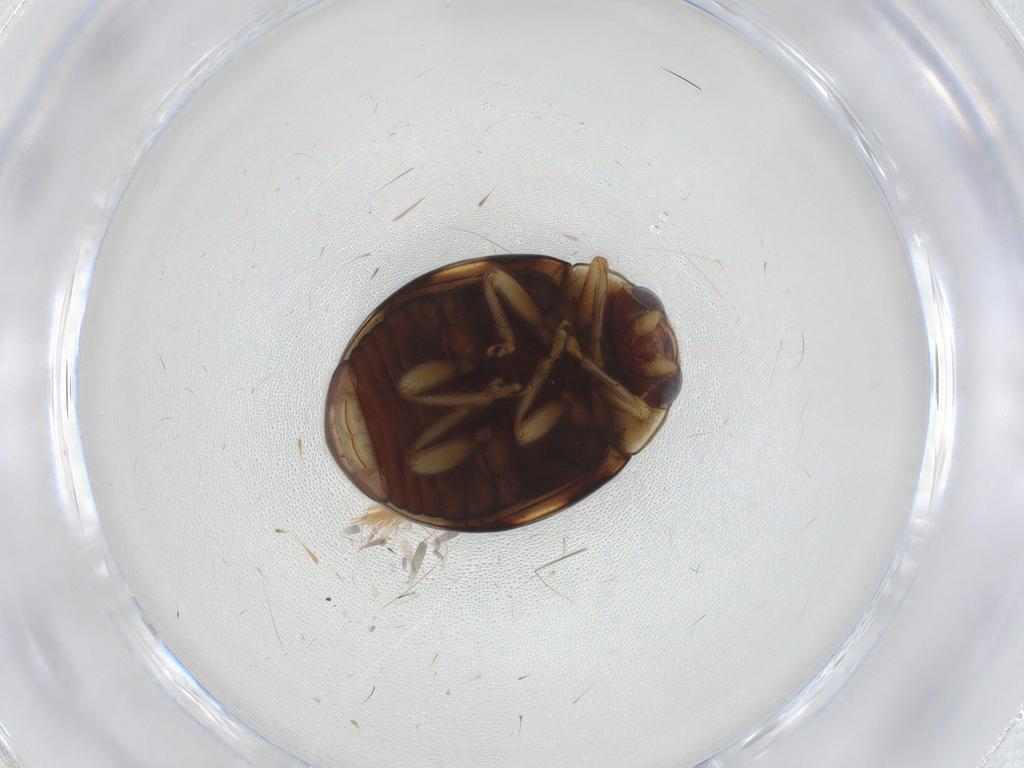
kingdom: Animalia
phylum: Arthropoda
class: Insecta
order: Coleoptera
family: Coccinellidae
